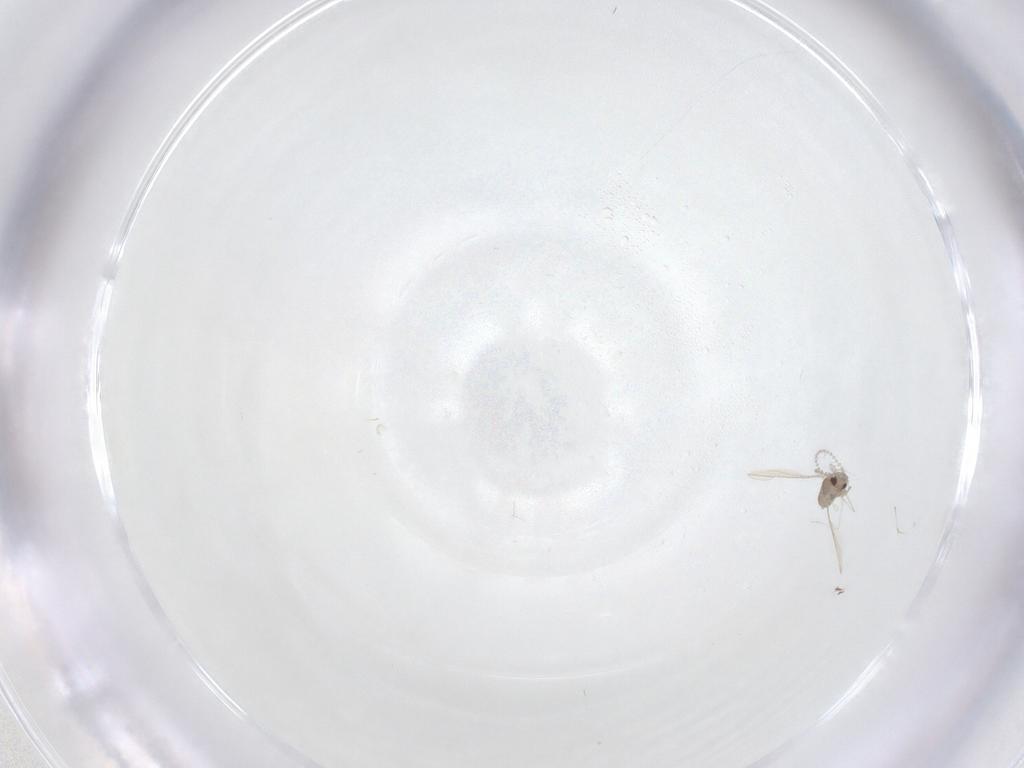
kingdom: Animalia
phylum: Arthropoda
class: Insecta
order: Diptera
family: Cecidomyiidae
